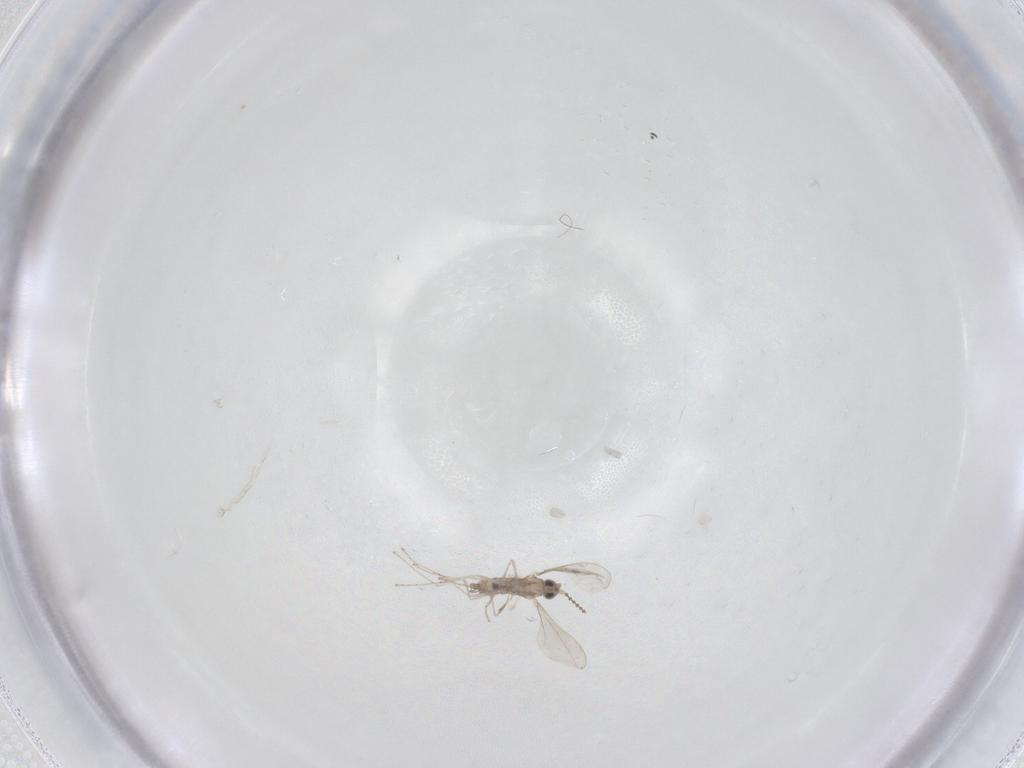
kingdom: Animalia
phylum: Arthropoda
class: Insecta
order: Diptera
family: Cecidomyiidae
